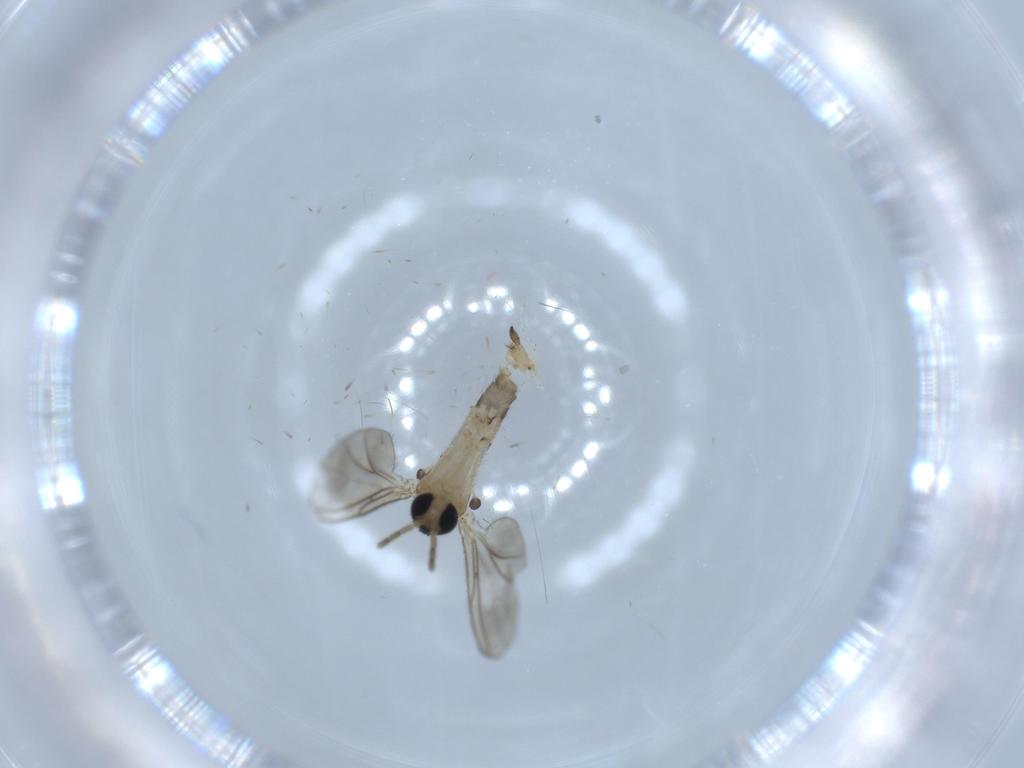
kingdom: Animalia
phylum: Arthropoda
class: Insecta
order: Diptera
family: Sciaridae
